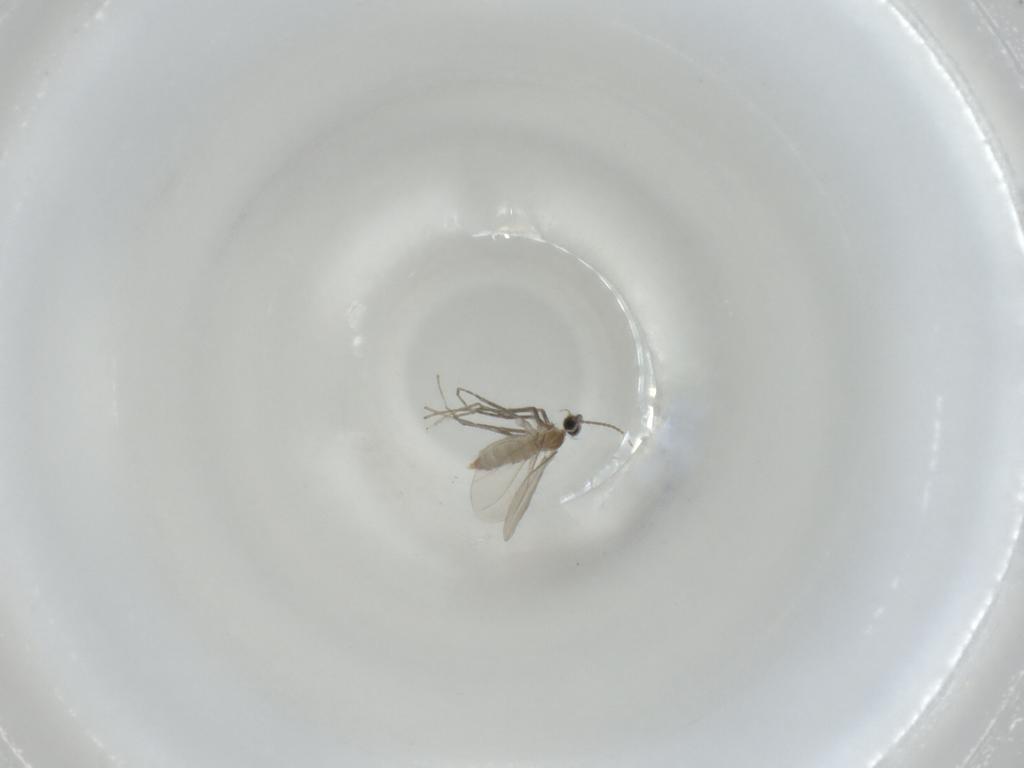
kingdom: Animalia
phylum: Arthropoda
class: Insecta
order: Diptera
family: Cecidomyiidae
